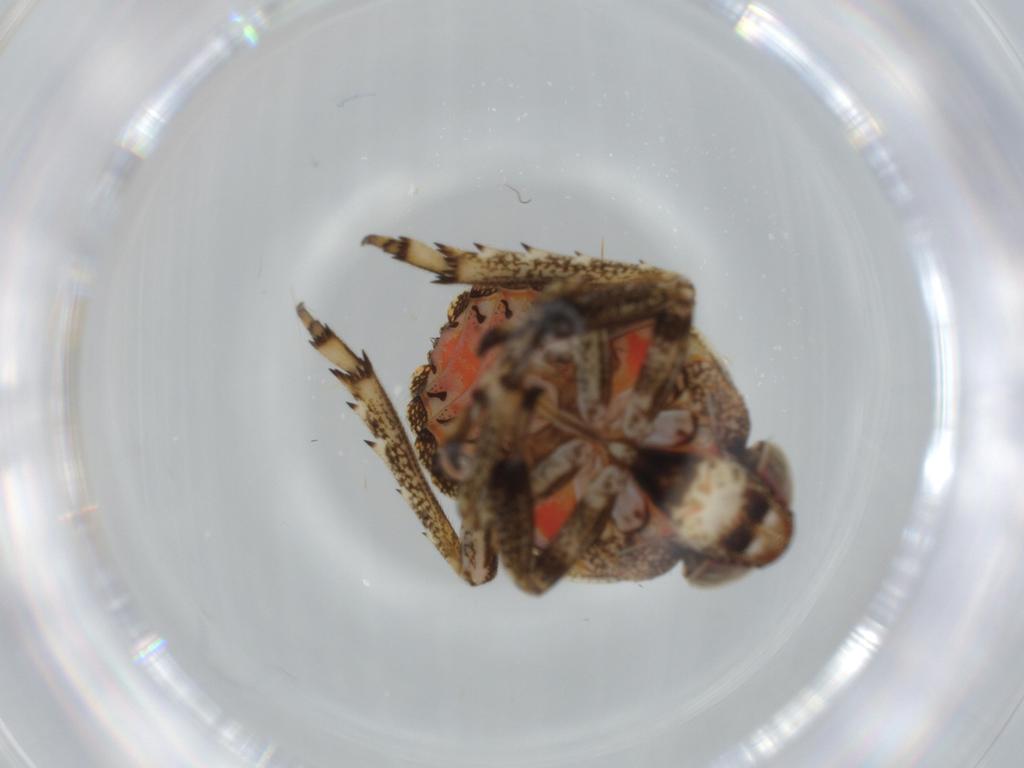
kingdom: Animalia
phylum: Arthropoda
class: Insecta
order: Hemiptera
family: Issidae
